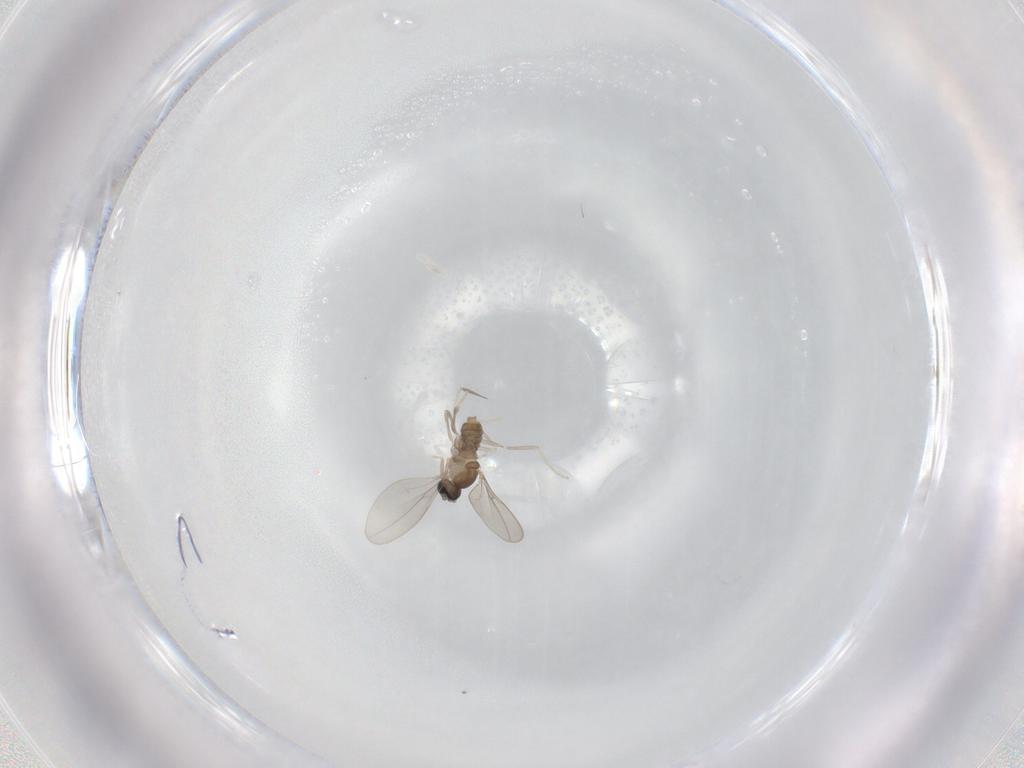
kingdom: Animalia
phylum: Arthropoda
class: Insecta
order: Diptera
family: Cecidomyiidae
